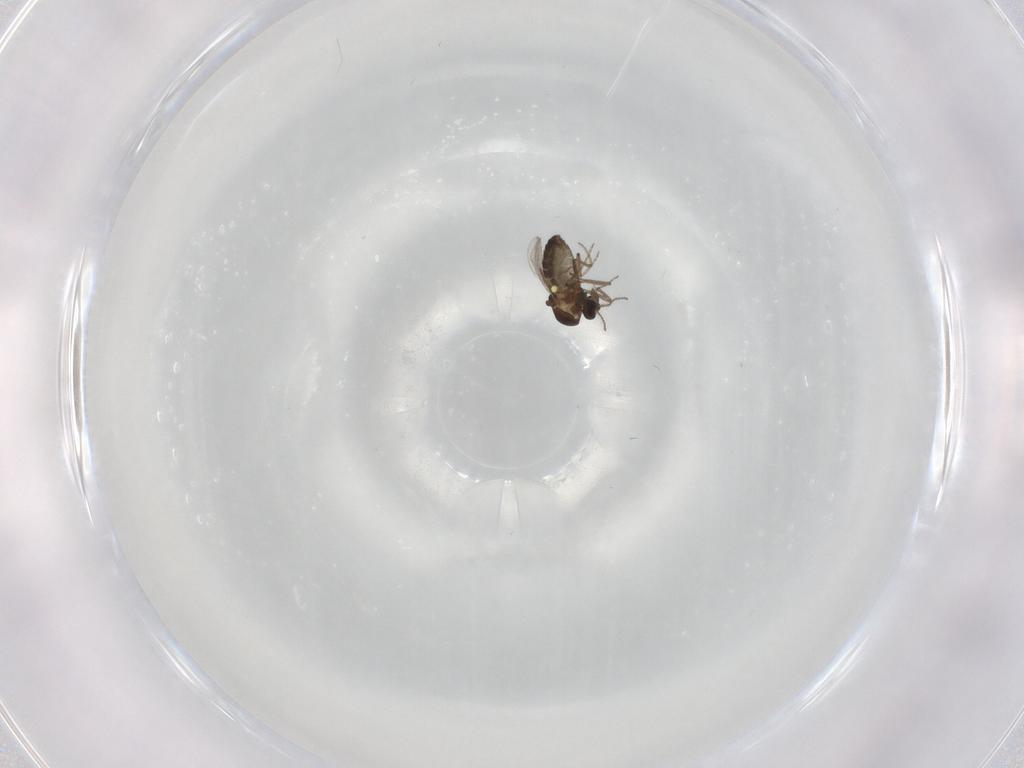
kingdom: Animalia
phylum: Arthropoda
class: Insecta
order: Diptera
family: Ceratopogonidae
